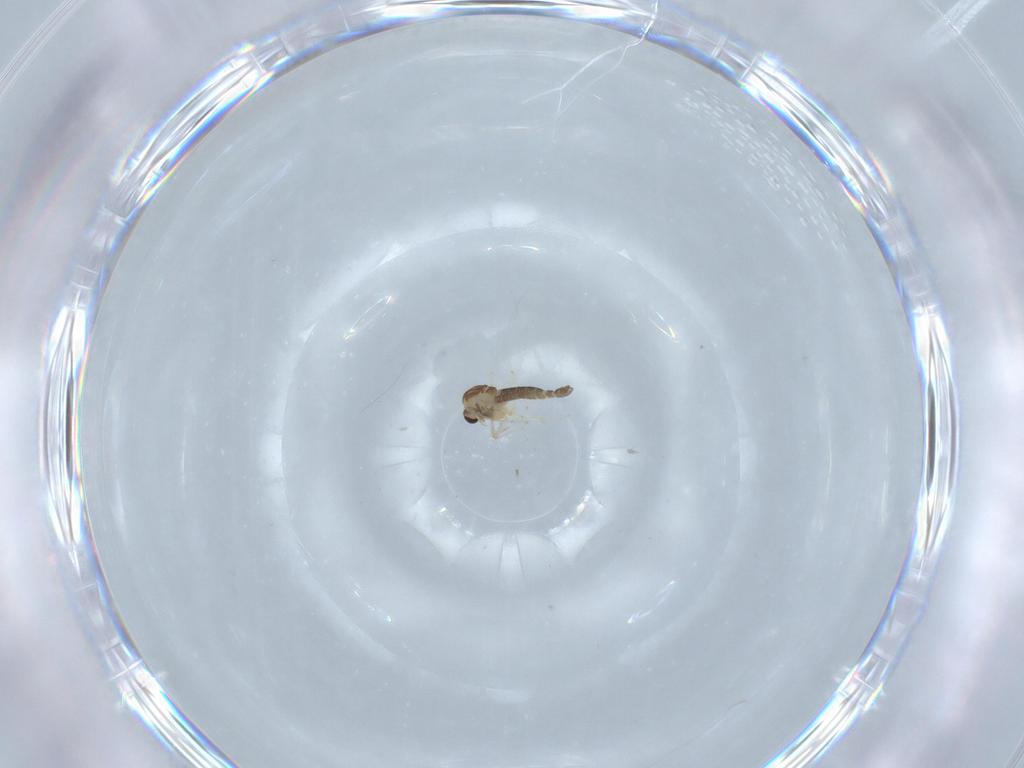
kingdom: Animalia
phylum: Arthropoda
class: Insecta
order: Diptera
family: Chironomidae
